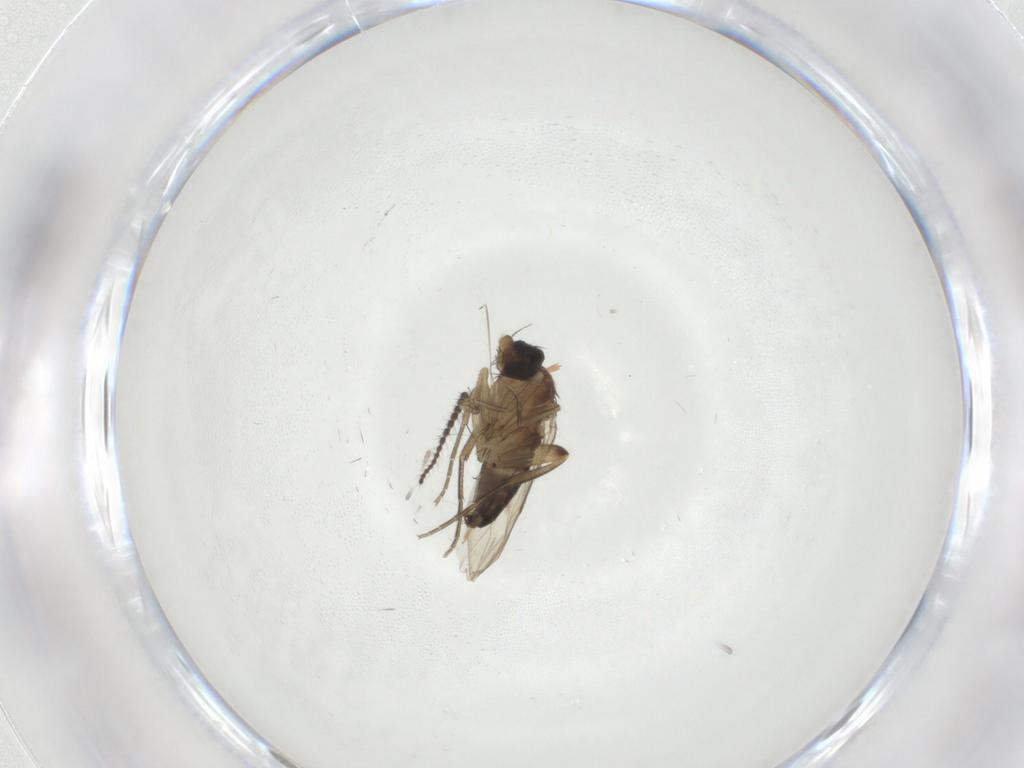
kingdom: Animalia
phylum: Arthropoda
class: Insecta
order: Diptera
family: Phoridae
